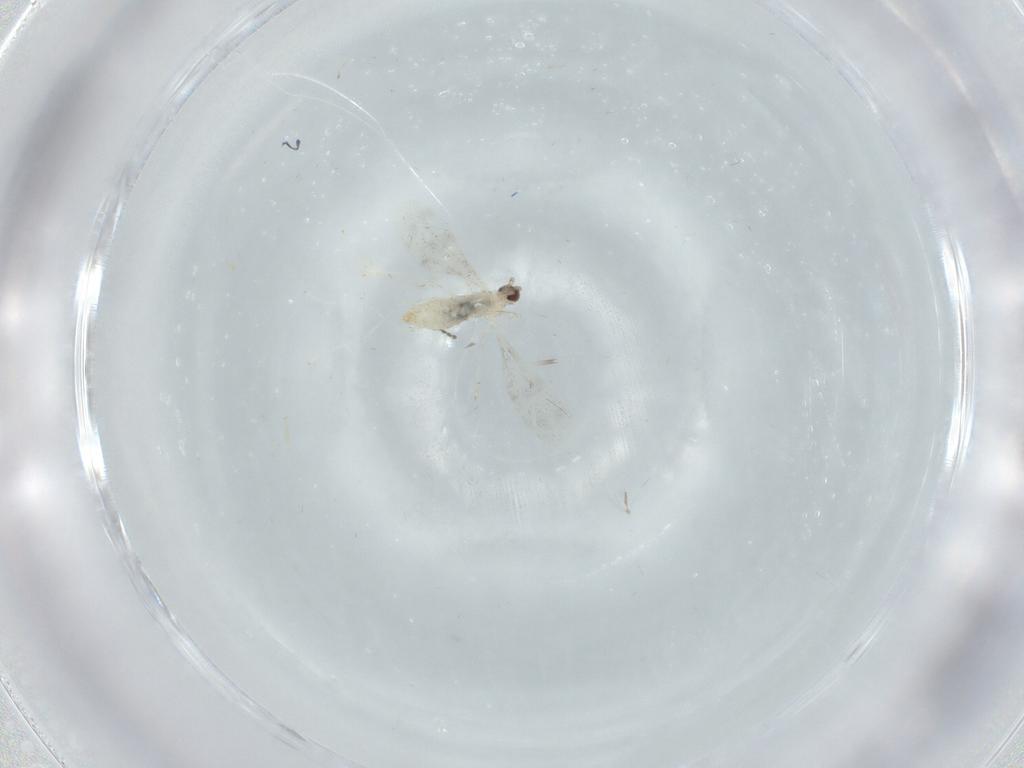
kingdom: Animalia
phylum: Arthropoda
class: Insecta
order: Diptera
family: Cecidomyiidae
